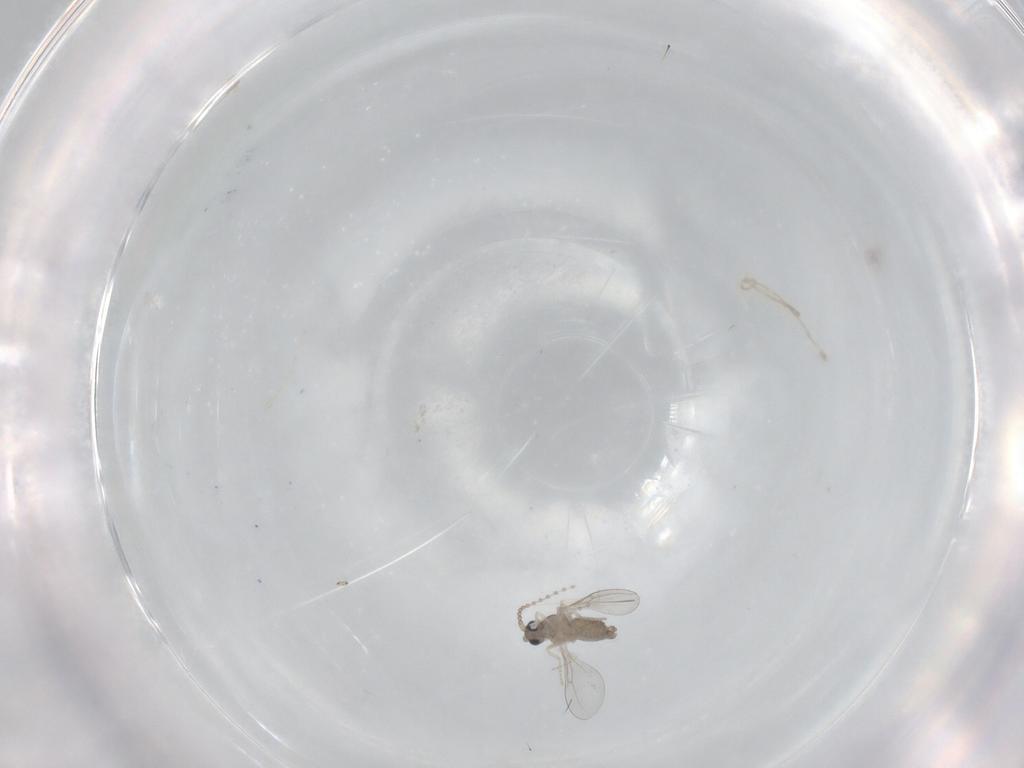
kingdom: Animalia
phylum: Arthropoda
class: Insecta
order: Diptera
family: Cecidomyiidae
